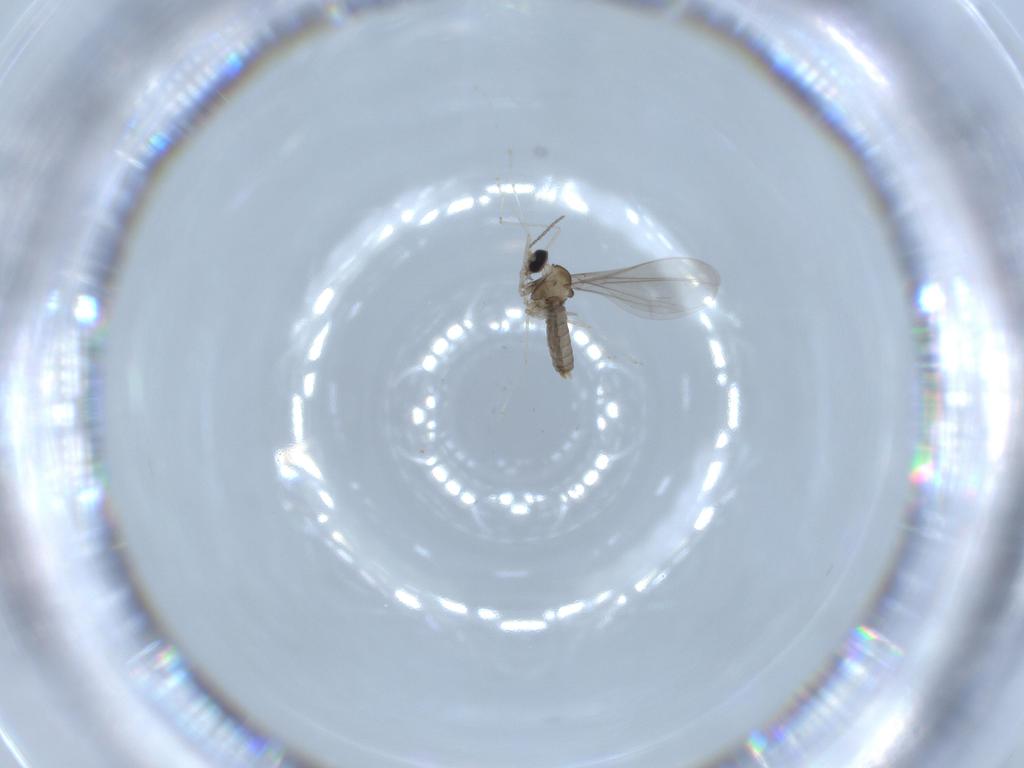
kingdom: Animalia
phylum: Arthropoda
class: Insecta
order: Diptera
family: Cecidomyiidae
